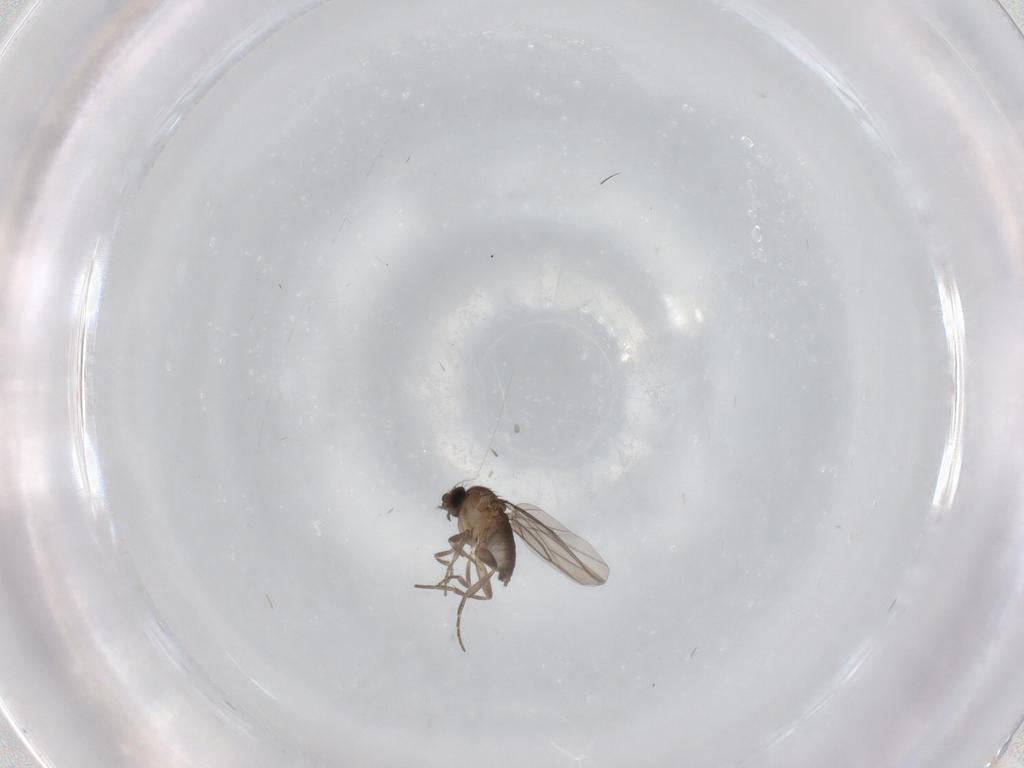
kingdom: Animalia
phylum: Arthropoda
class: Insecta
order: Diptera
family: Phoridae
